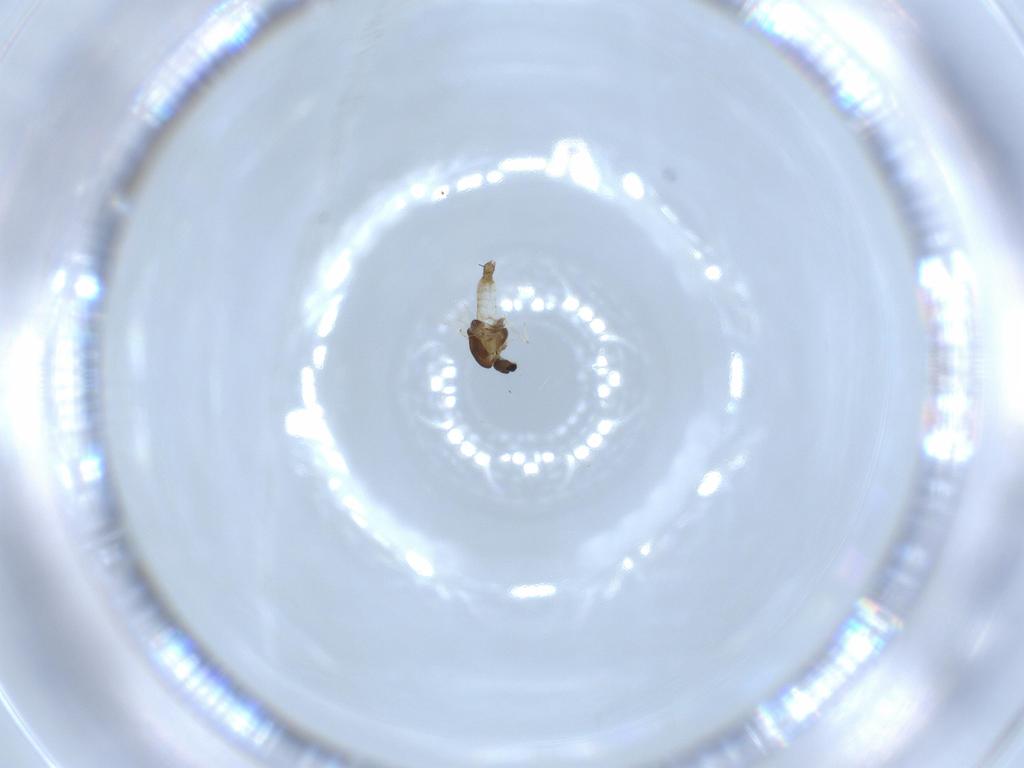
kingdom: Animalia
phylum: Arthropoda
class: Insecta
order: Diptera
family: Chironomidae
